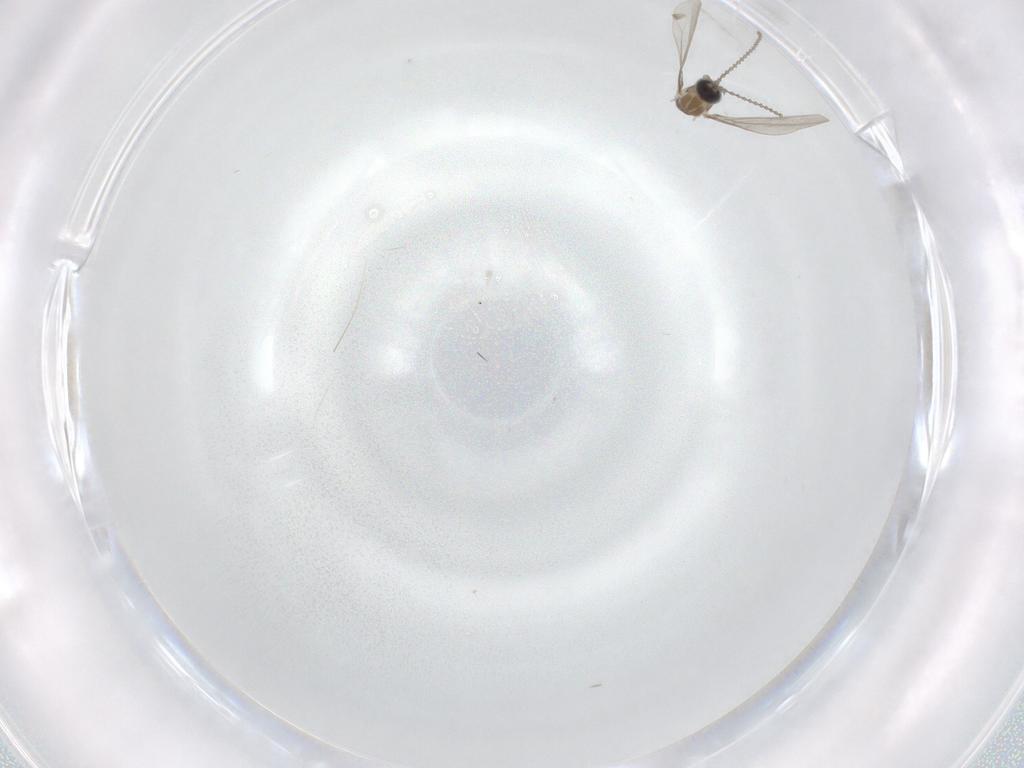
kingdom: Animalia
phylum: Arthropoda
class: Insecta
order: Diptera
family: Cecidomyiidae
